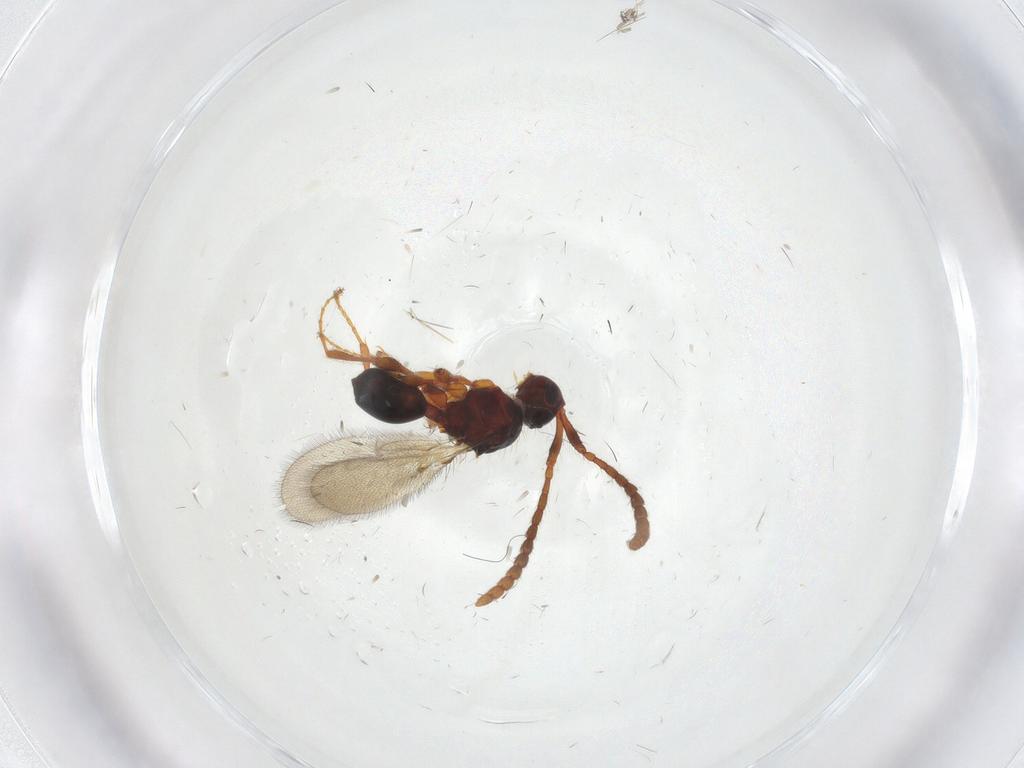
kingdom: Animalia
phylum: Arthropoda
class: Insecta
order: Hymenoptera
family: Diapriidae
